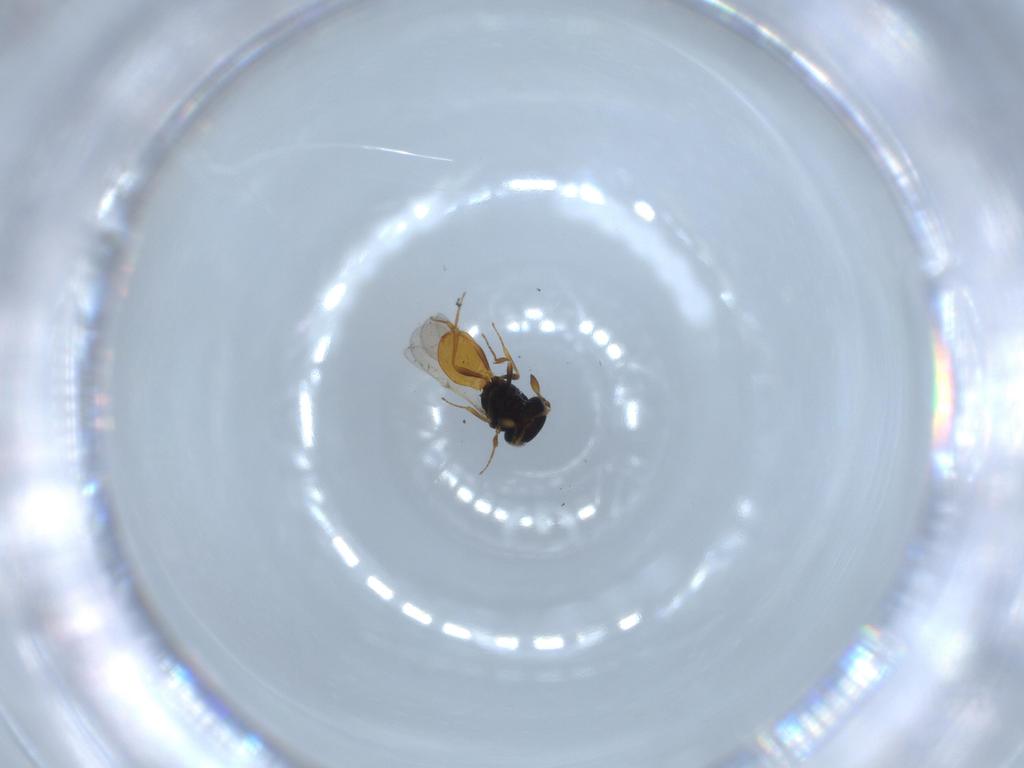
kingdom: Animalia
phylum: Arthropoda
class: Insecta
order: Hymenoptera
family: Scelionidae
